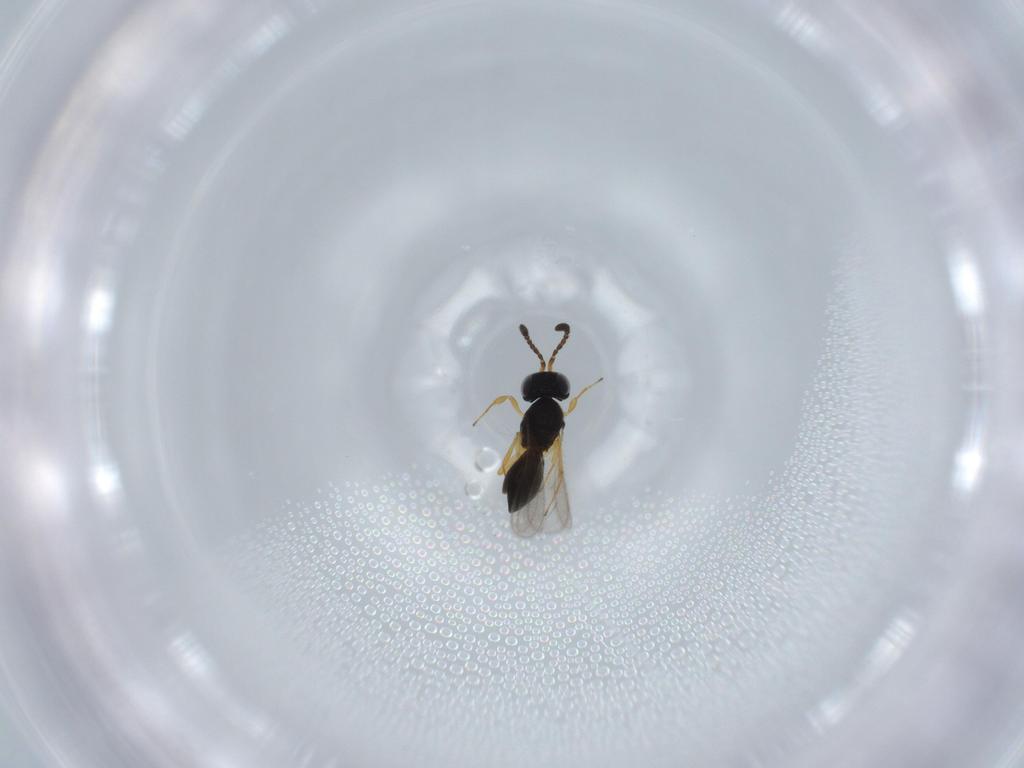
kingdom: Animalia
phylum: Arthropoda
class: Insecta
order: Hymenoptera
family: Scelionidae
